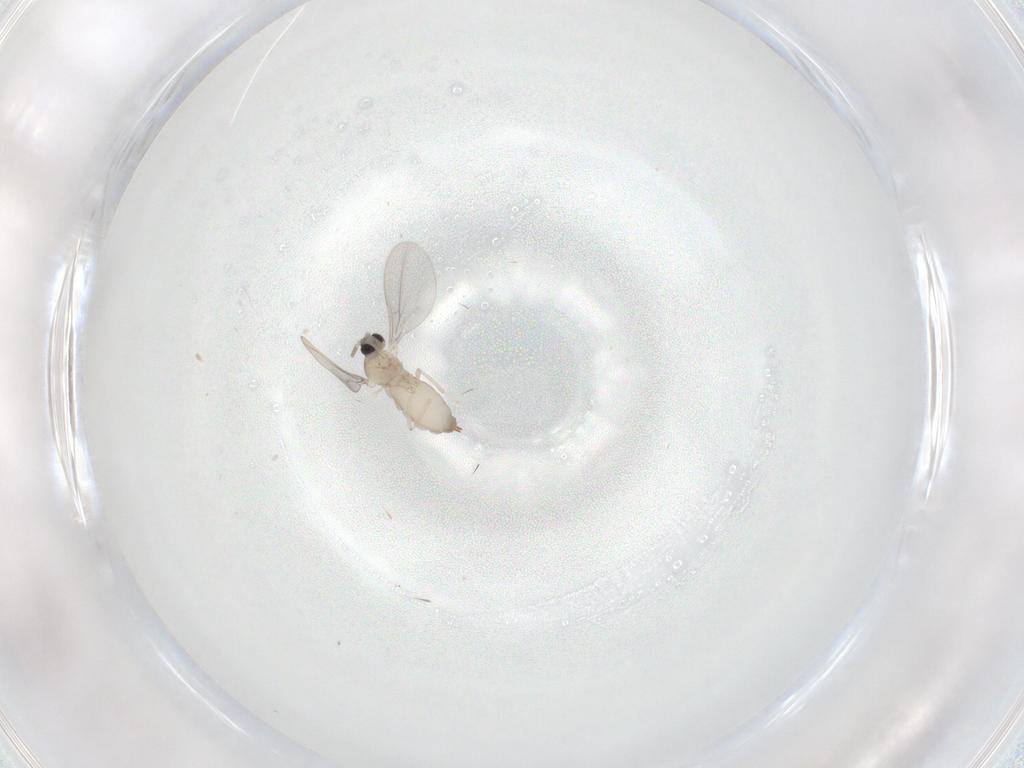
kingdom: Animalia
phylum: Arthropoda
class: Insecta
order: Diptera
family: Cecidomyiidae
